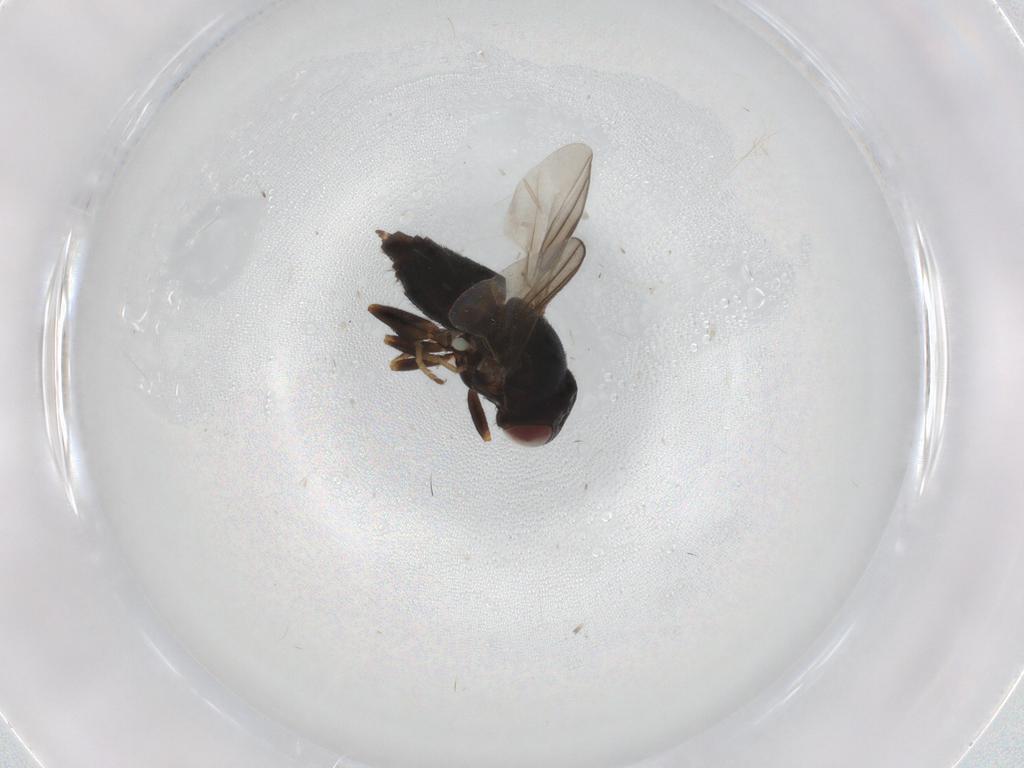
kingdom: Animalia
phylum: Arthropoda
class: Insecta
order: Diptera
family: Chloropidae
